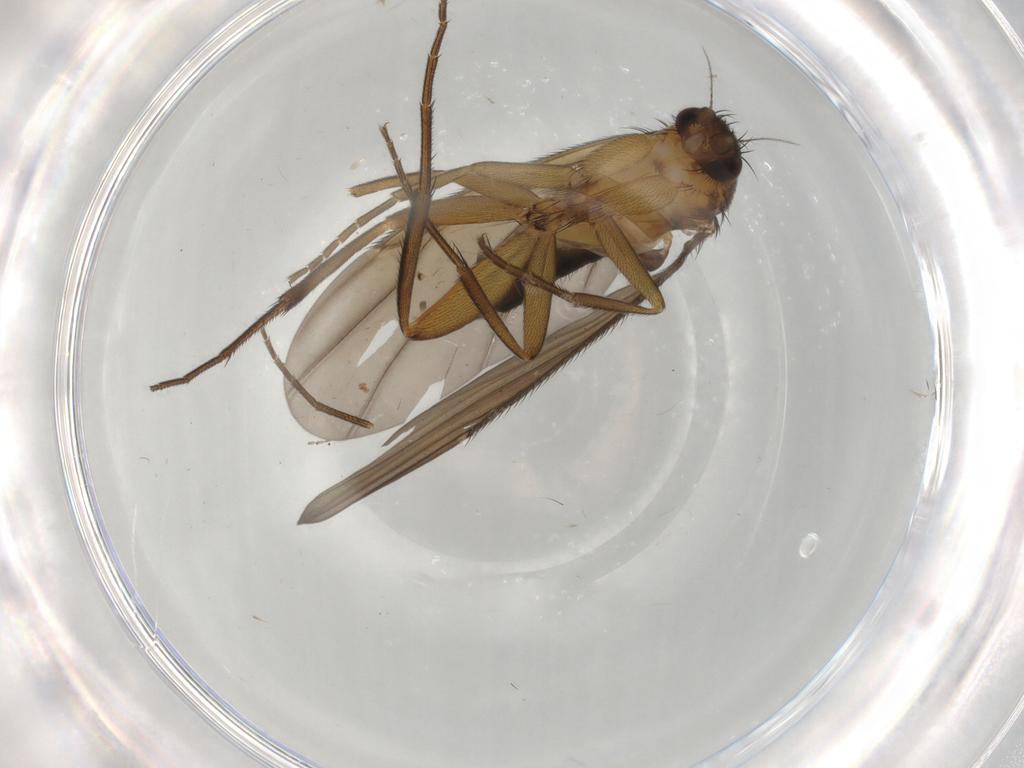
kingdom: Animalia
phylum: Arthropoda
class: Insecta
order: Diptera
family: Phoridae
